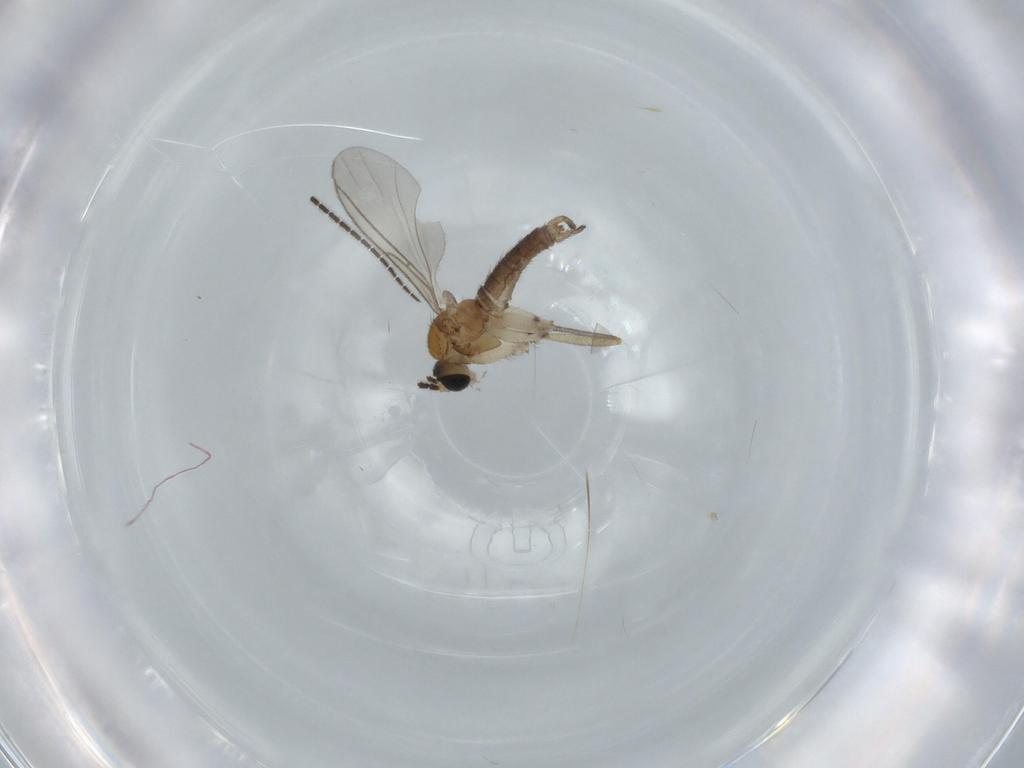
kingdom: Animalia
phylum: Arthropoda
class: Insecta
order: Diptera
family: Sciaridae
